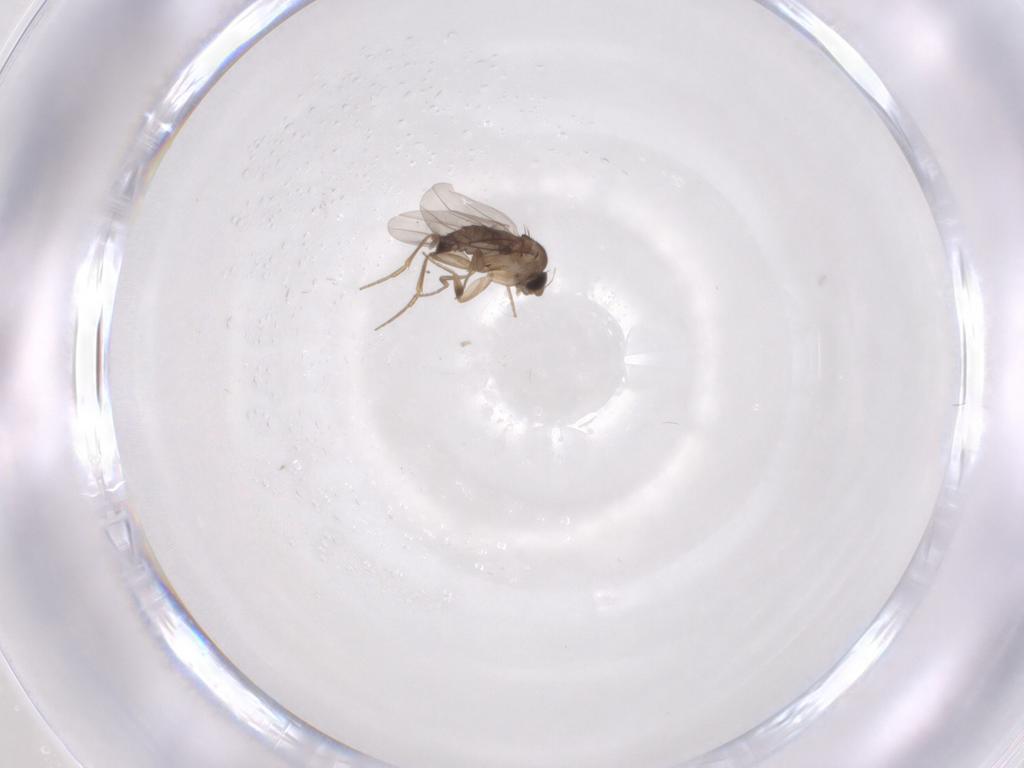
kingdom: Animalia
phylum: Arthropoda
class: Insecta
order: Diptera
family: Phoridae
